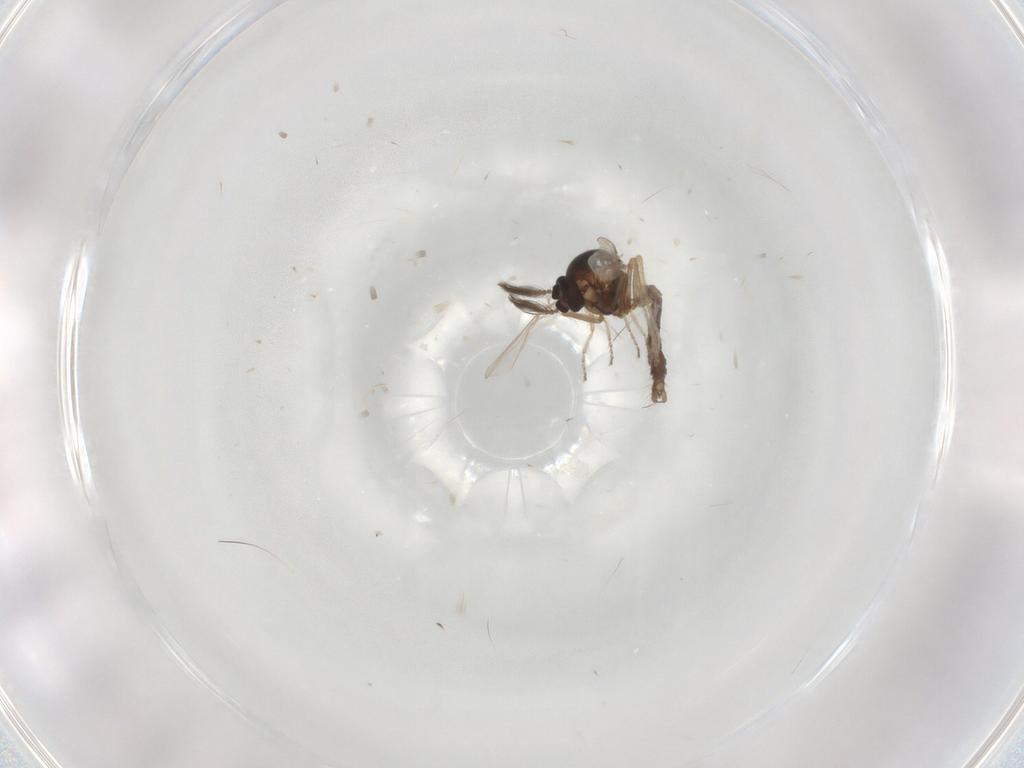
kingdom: Animalia
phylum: Arthropoda
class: Insecta
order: Diptera
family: Ceratopogonidae
